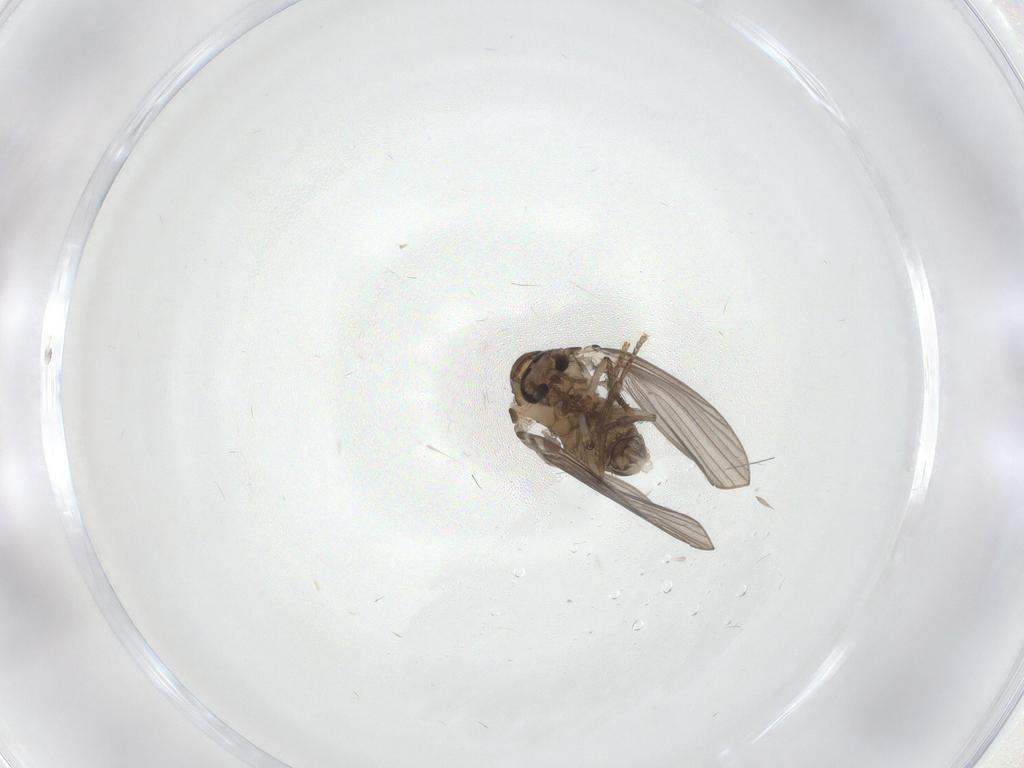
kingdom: Animalia
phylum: Arthropoda
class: Insecta
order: Diptera
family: Psychodidae
